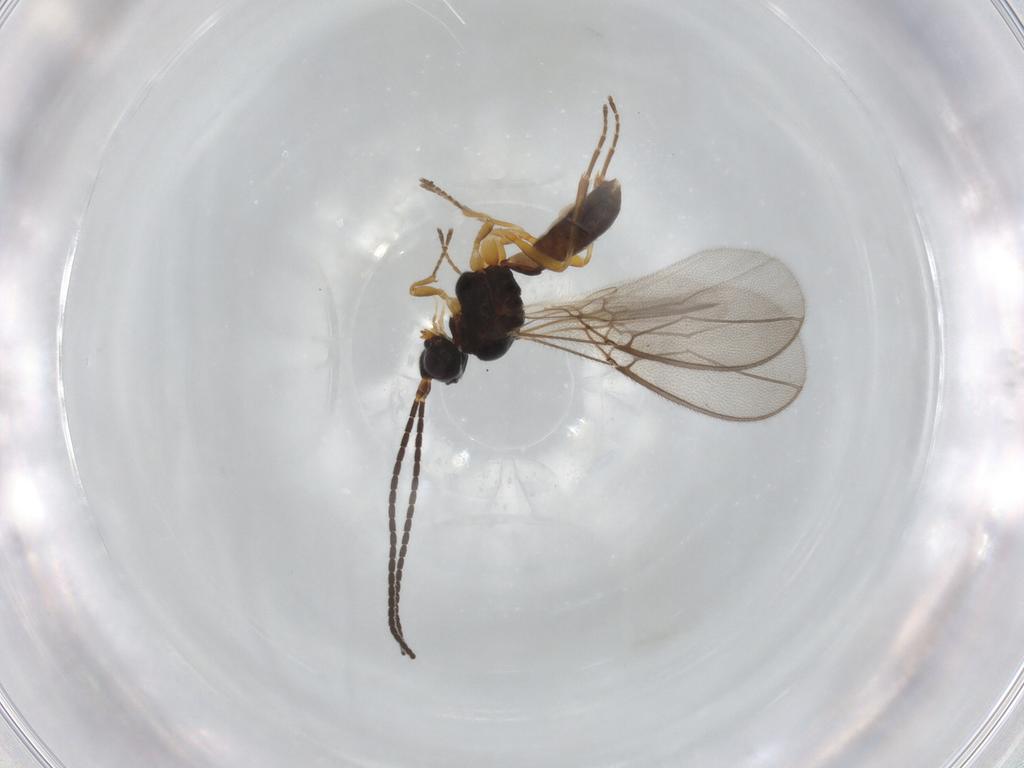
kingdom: Animalia
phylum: Arthropoda
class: Insecta
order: Hymenoptera
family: Braconidae
